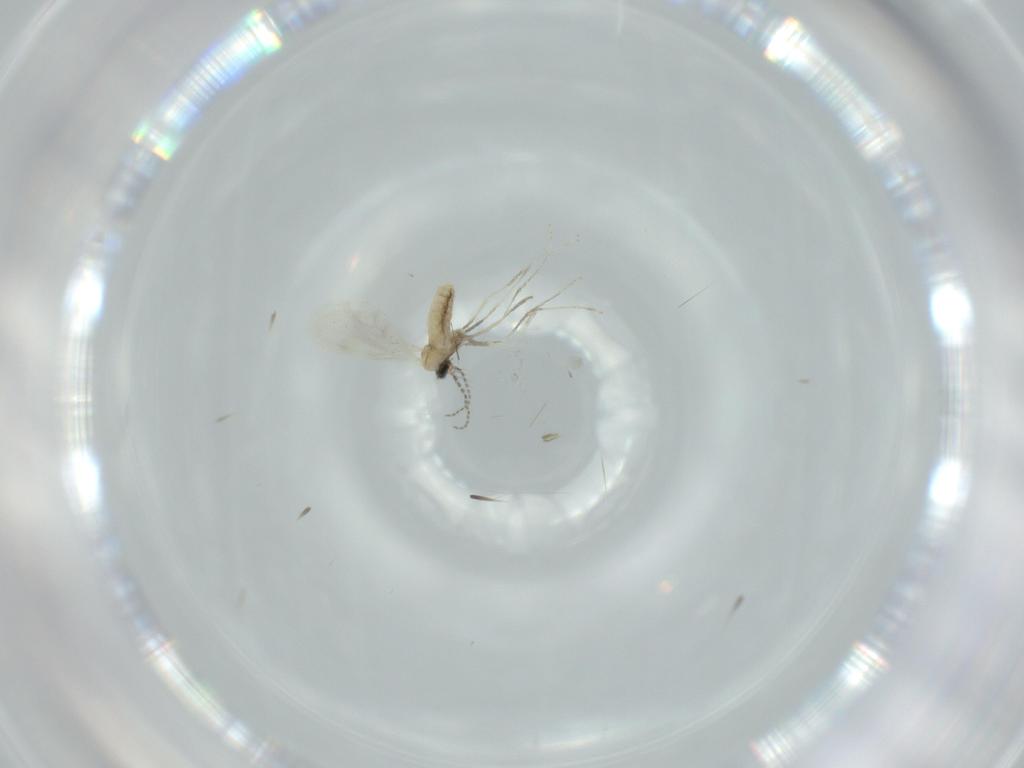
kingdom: Animalia
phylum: Arthropoda
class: Insecta
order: Diptera
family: Cecidomyiidae
